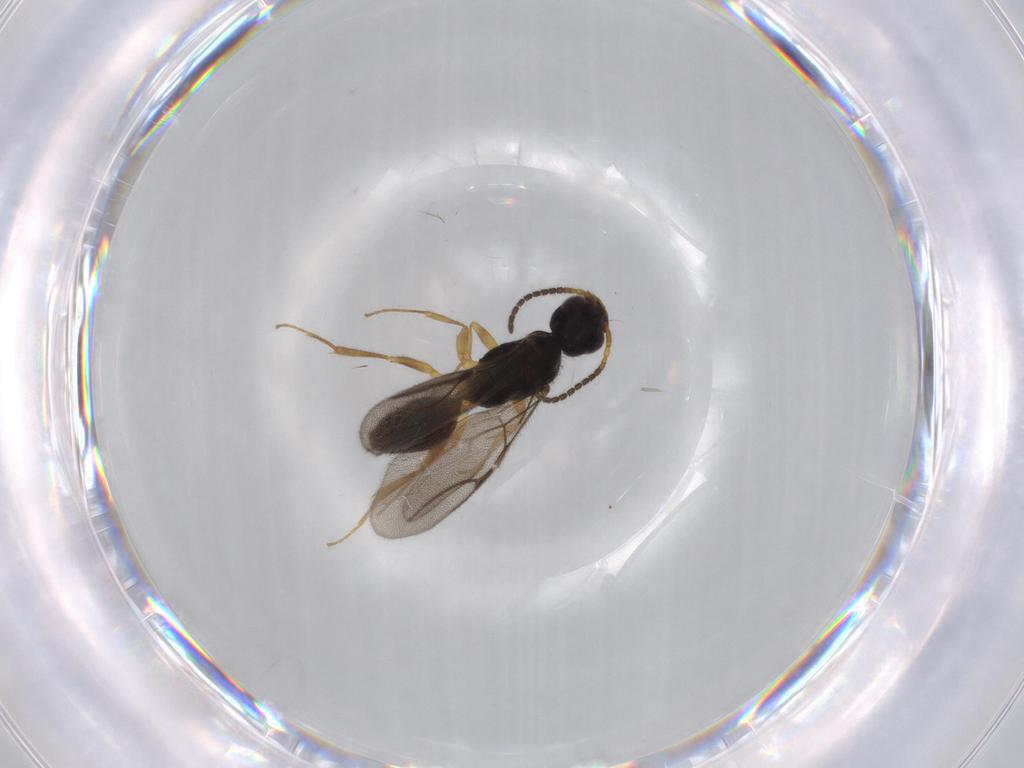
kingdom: Animalia
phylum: Arthropoda
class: Insecta
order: Hymenoptera
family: Bethylidae
